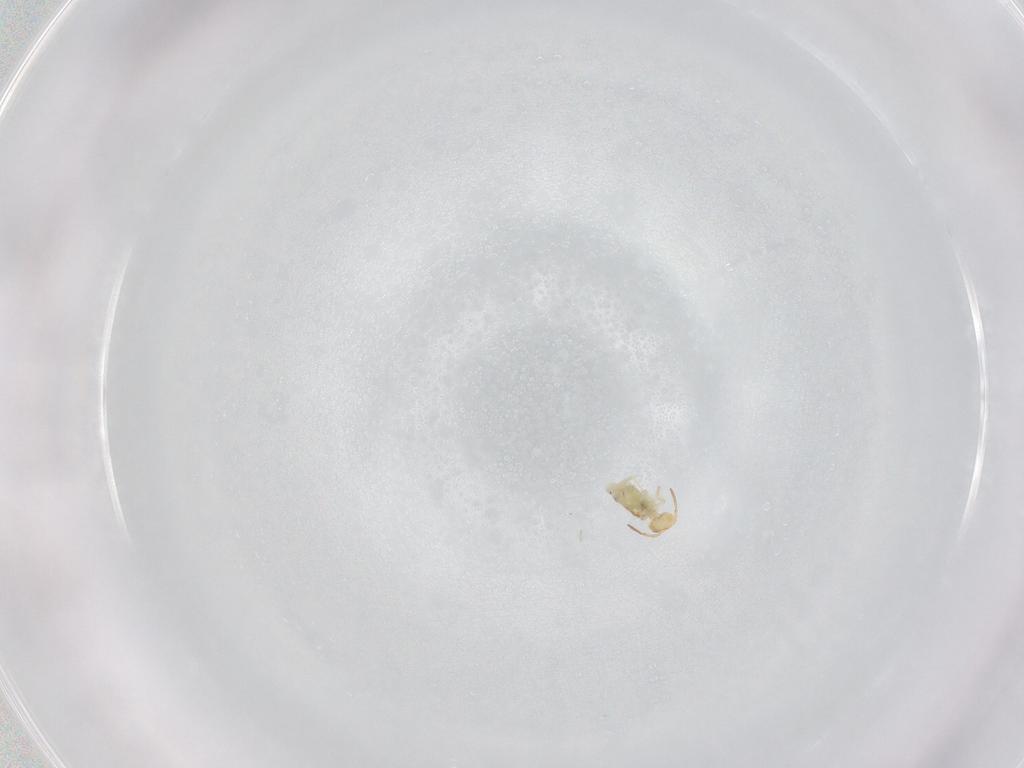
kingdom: Animalia
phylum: Arthropoda
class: Collembola
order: Symphypleona
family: Bourletiellidae
